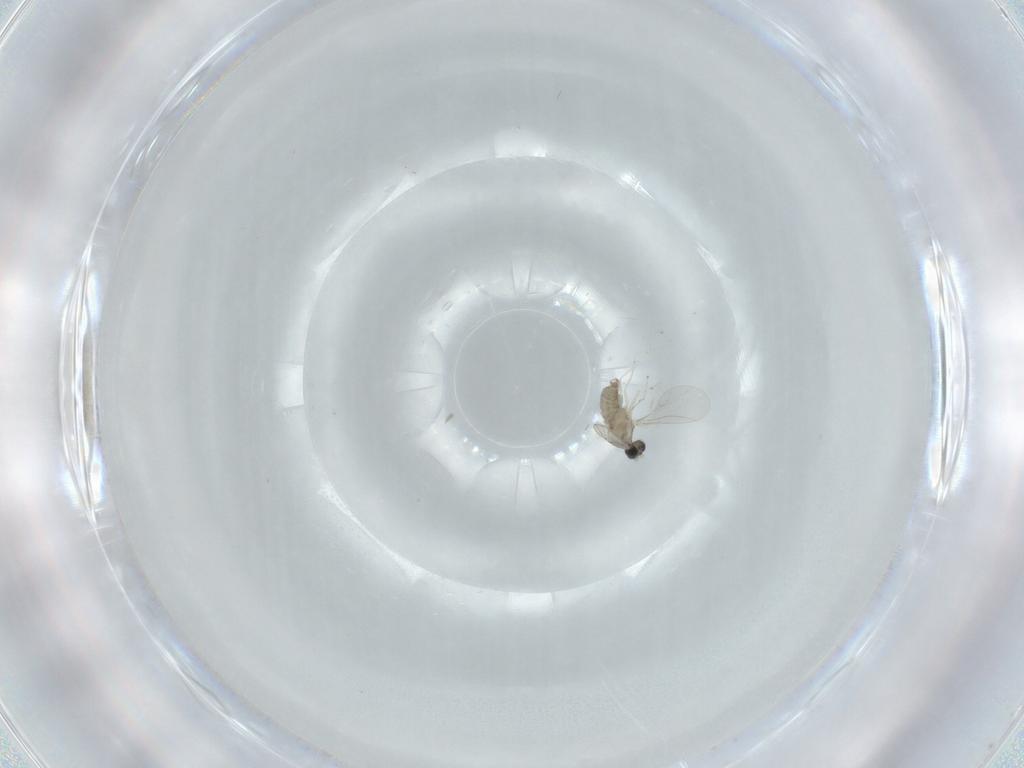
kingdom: Animalia
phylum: Arthropoda
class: Insecta
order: Diptera
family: Cecidomyiidae
